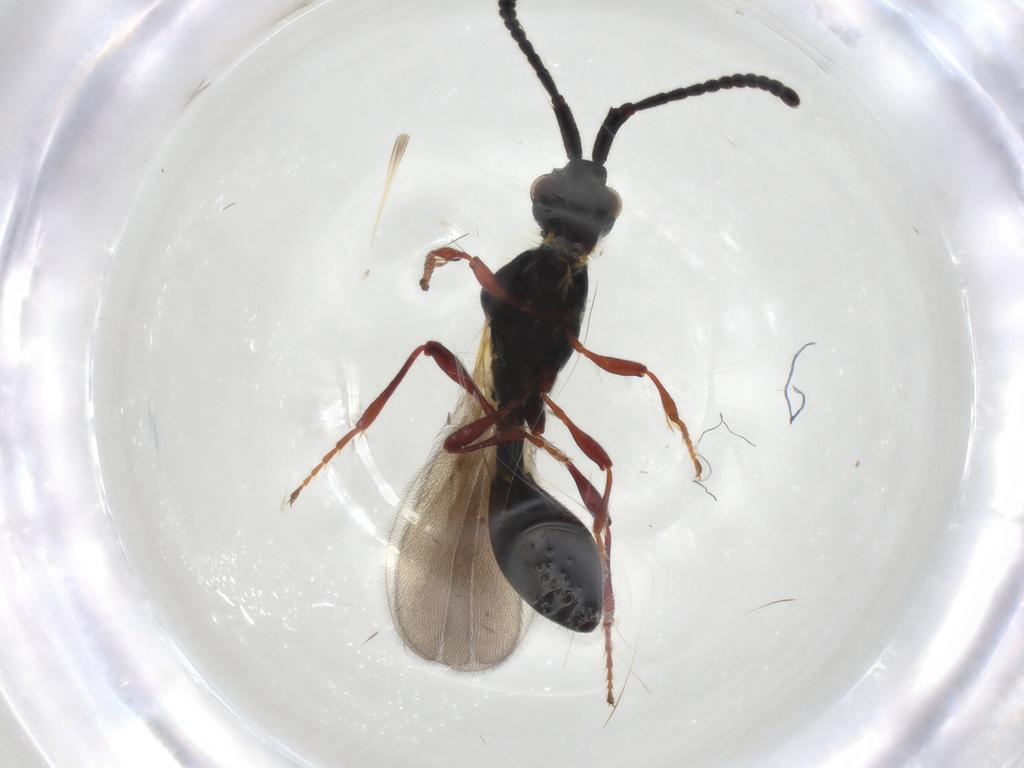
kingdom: Animalia
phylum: Arthropoda
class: Insecta
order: Hymenoptera
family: Diapriidae
